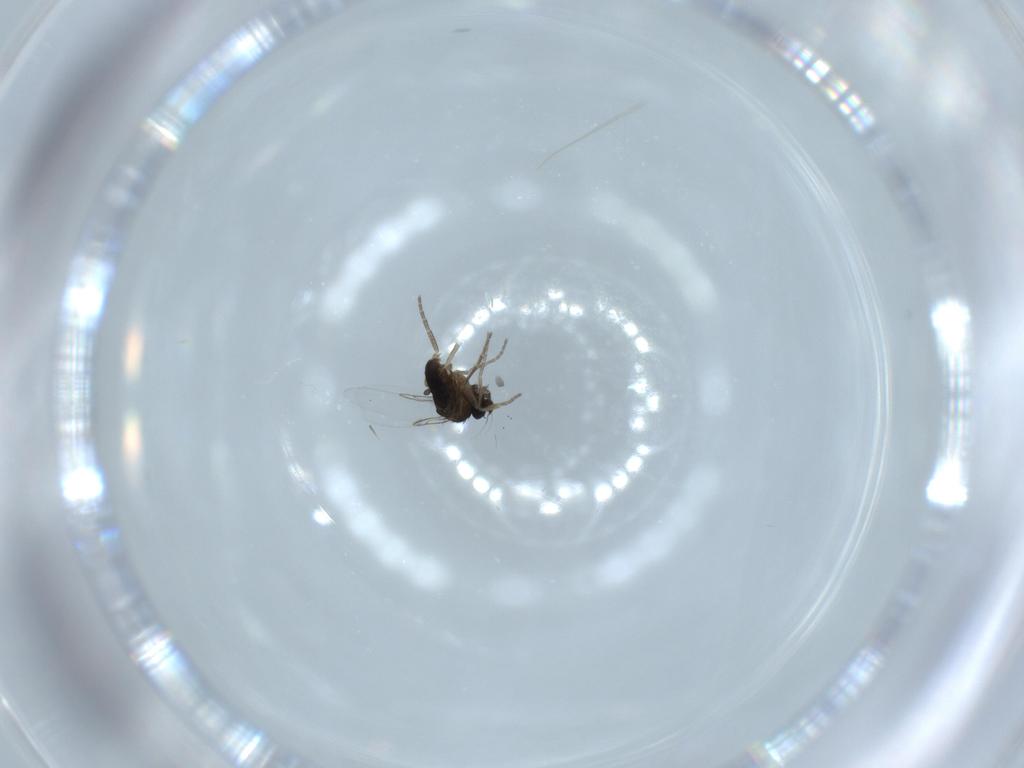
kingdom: Animalia
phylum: Arthropoda
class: Insecta
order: Diptera
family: Phoridae
